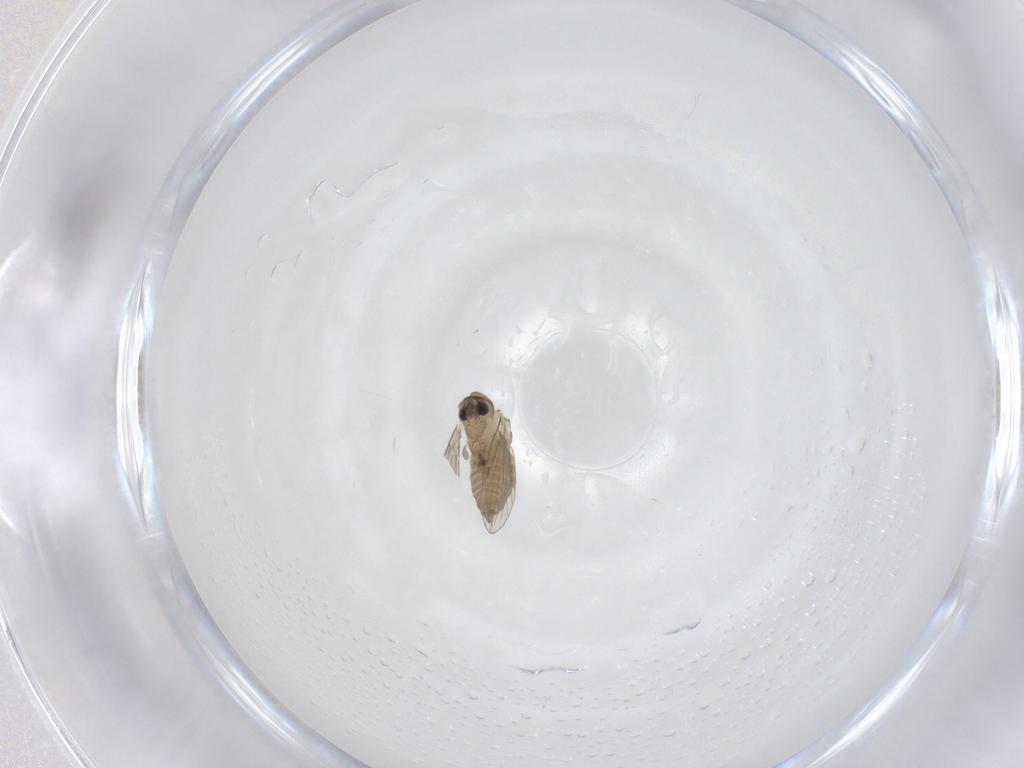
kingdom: Animalia
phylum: Arthropoda
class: Insecta
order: Diptera
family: Psychodidae
